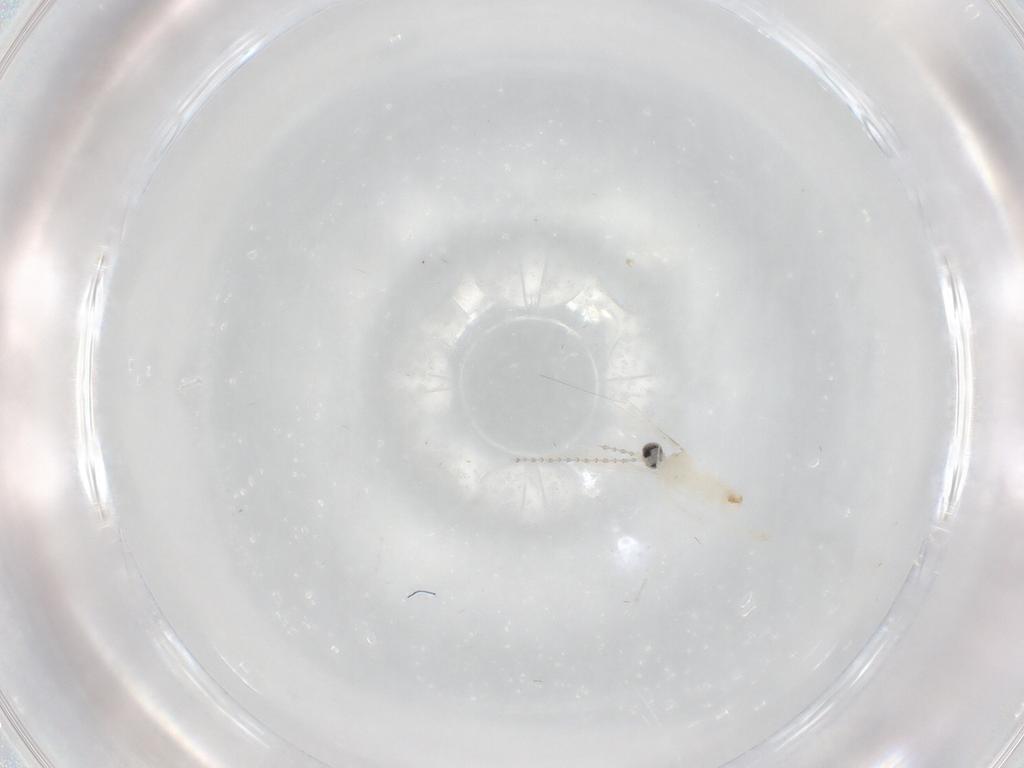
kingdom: Animalia
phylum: Arthropoda
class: Insecta
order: Diptera
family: Cecidomyiidae
